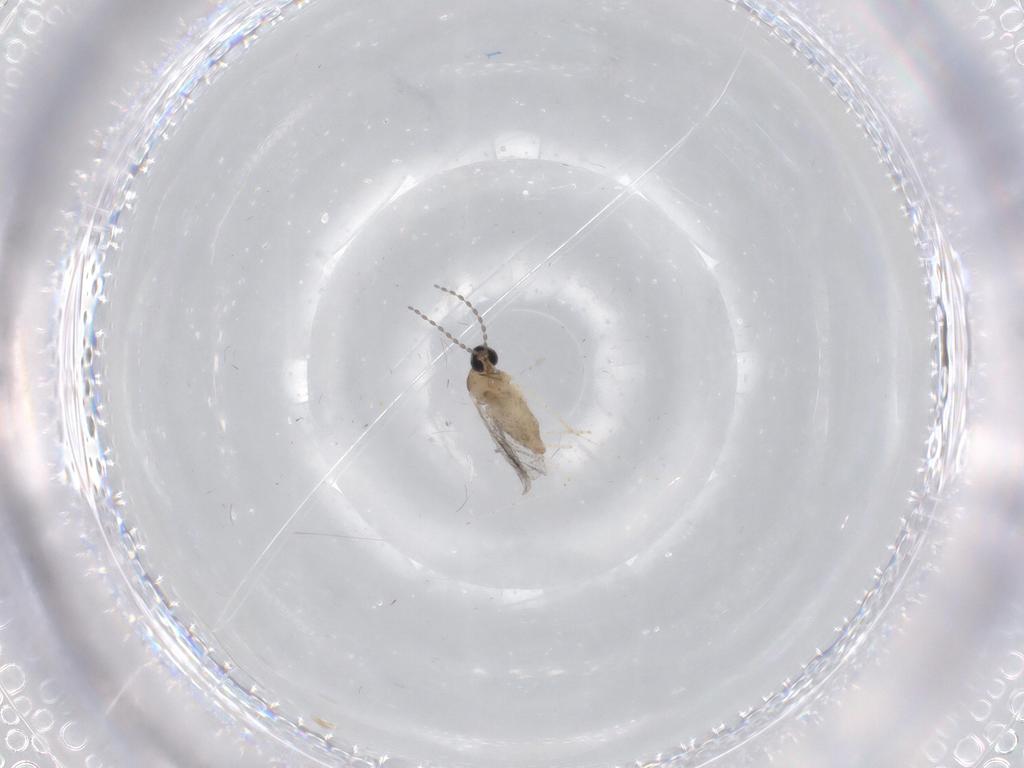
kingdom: Animalia
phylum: Arthropoda
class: Insecta
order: Diptera
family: Cecidomyiidae
